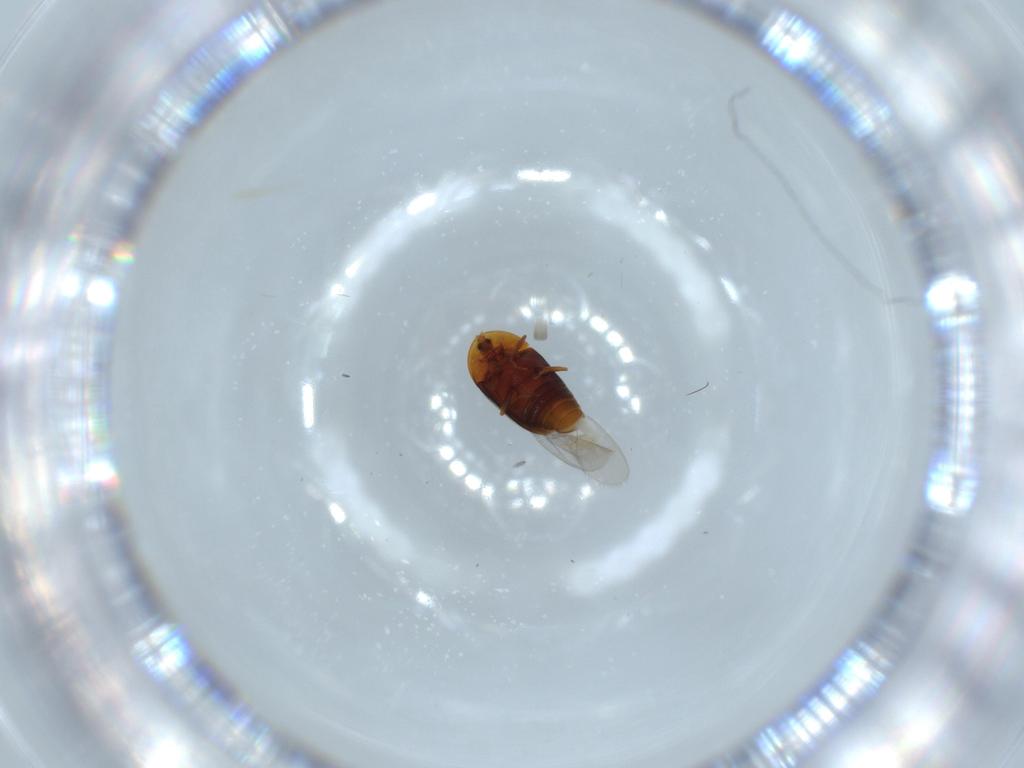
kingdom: Animalia
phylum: Arthropoda
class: Insecta
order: Coleoptera
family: Corylophidae
